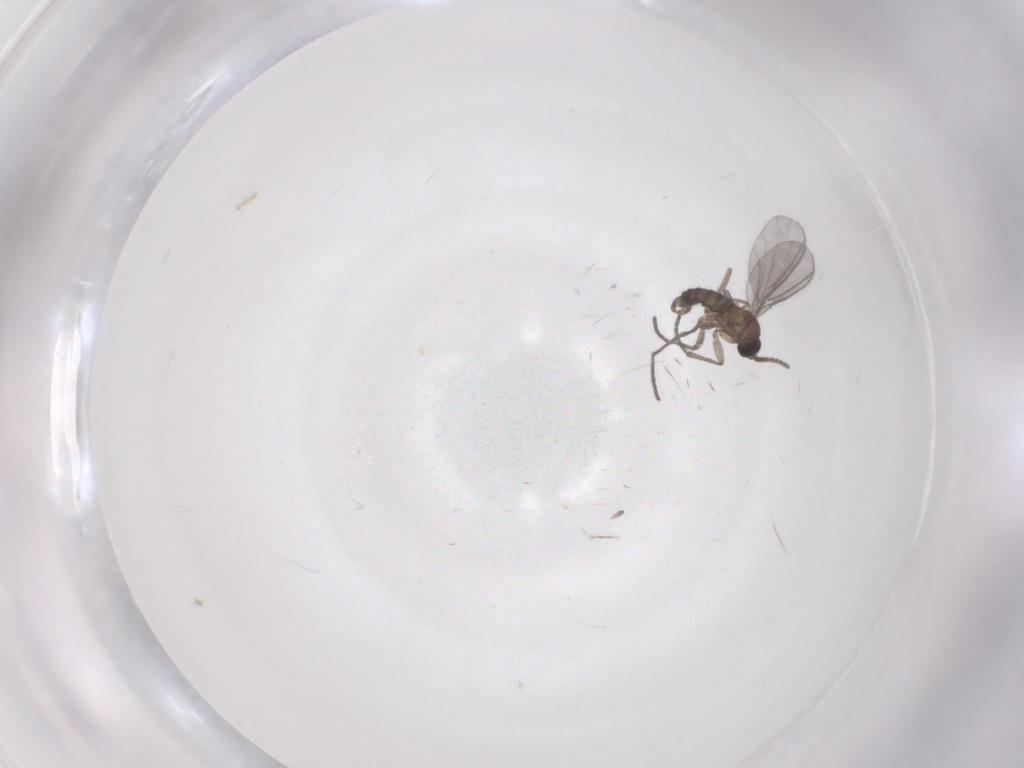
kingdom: Animalia
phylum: Arthropoda
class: Insecta
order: Diptera
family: Sciaridae
